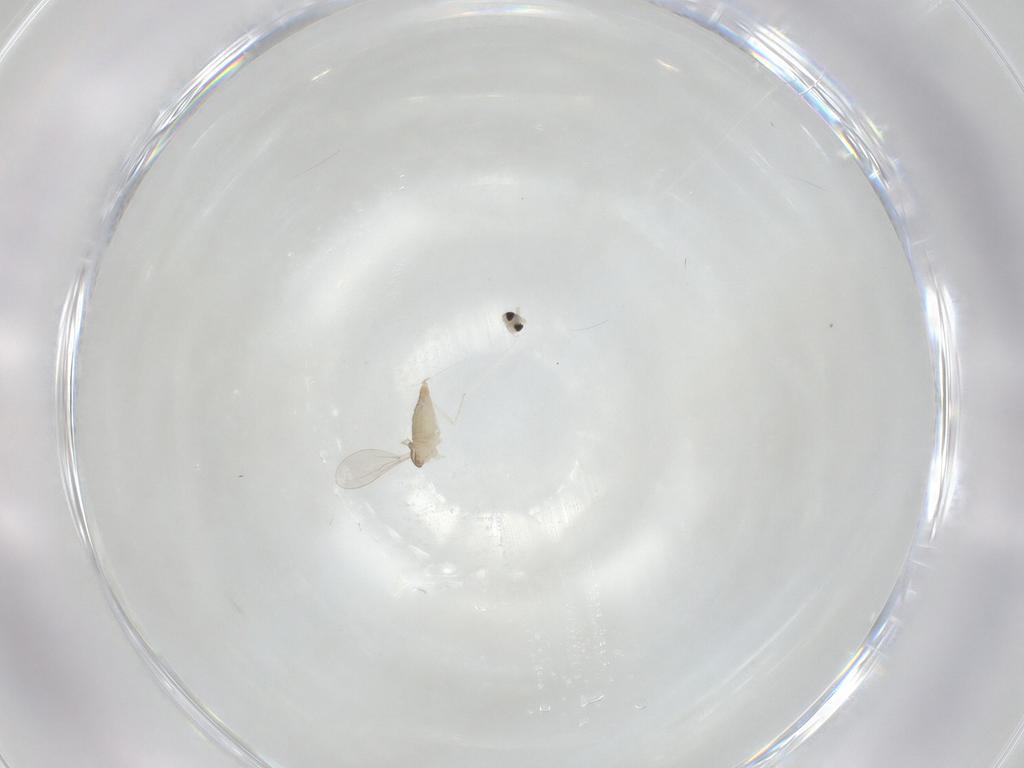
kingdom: Animalia
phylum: Arthropoda
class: Insecta
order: Diptera
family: Cecidomyiidae
